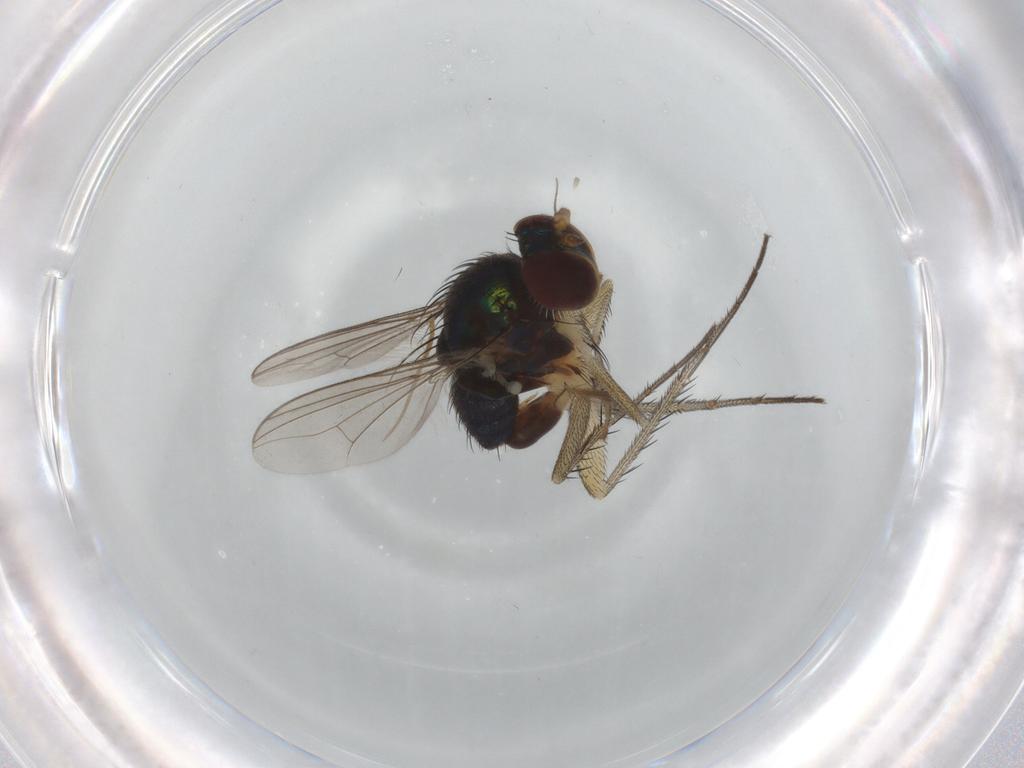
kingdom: Animalia
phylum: Arthropoda
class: Insecta
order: Diptera
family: Dolichopodidae
